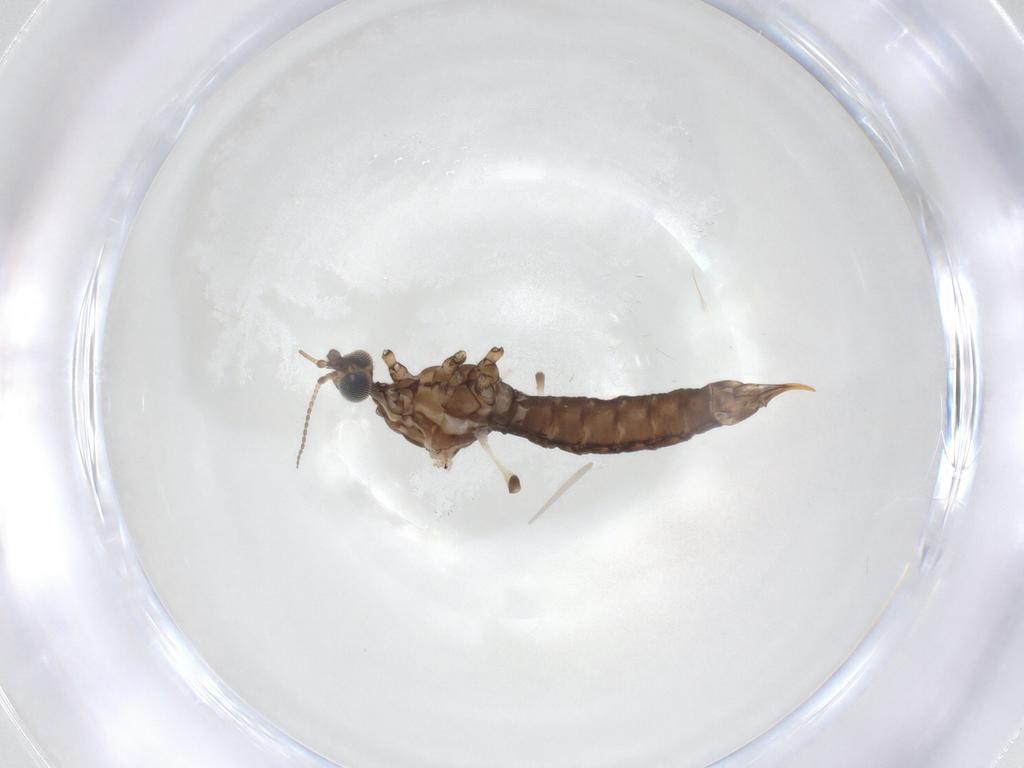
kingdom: Animalia
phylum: Arthropoda
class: Insecta
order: Diptera
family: Limoniidae
